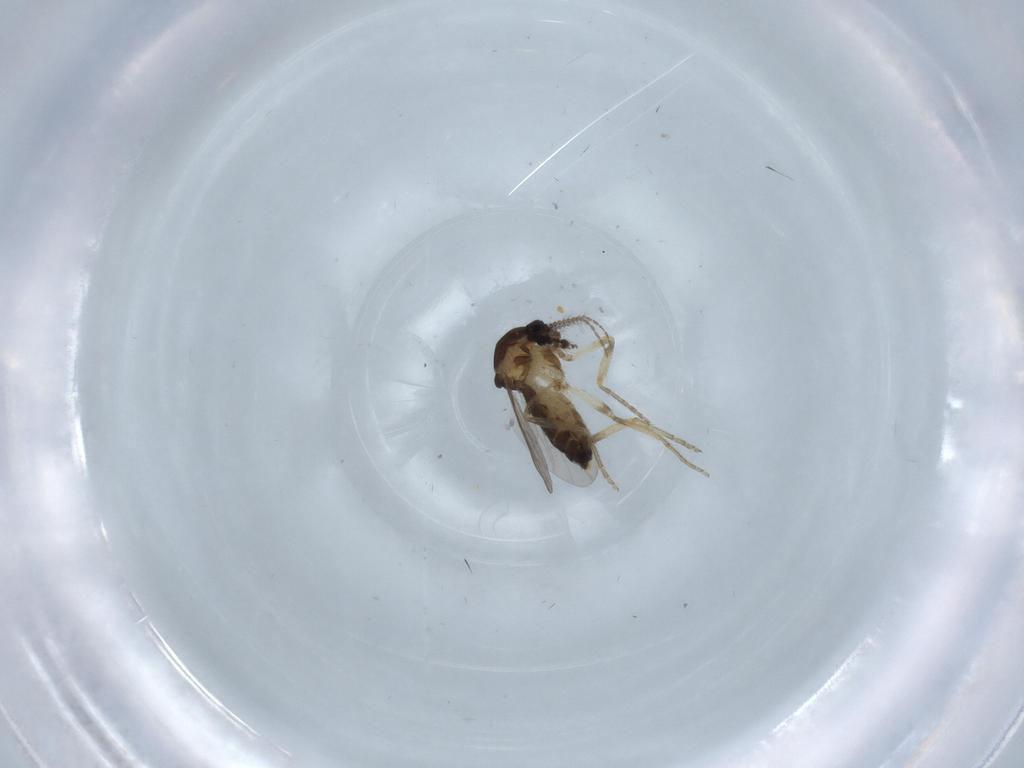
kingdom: Animalia
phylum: Arthropoda
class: Insecta
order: Diptera
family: Ceratopogonidae
